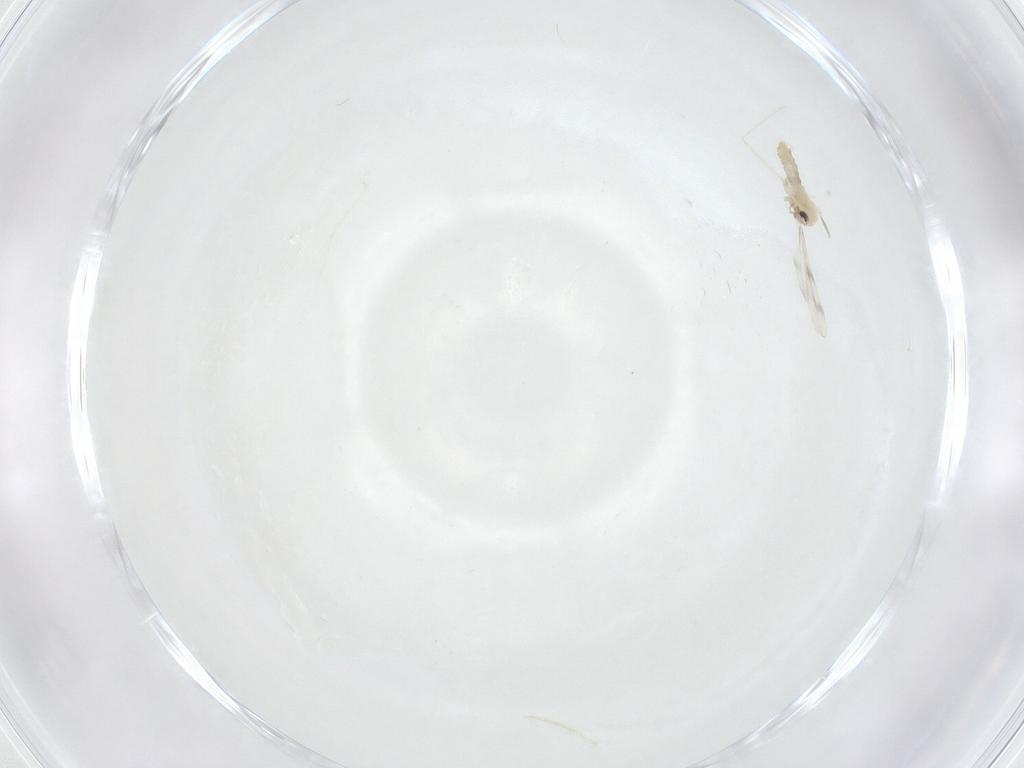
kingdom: Animalia
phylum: Arthropoda
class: Insecta
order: Diptera
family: Cecidomyiidae
